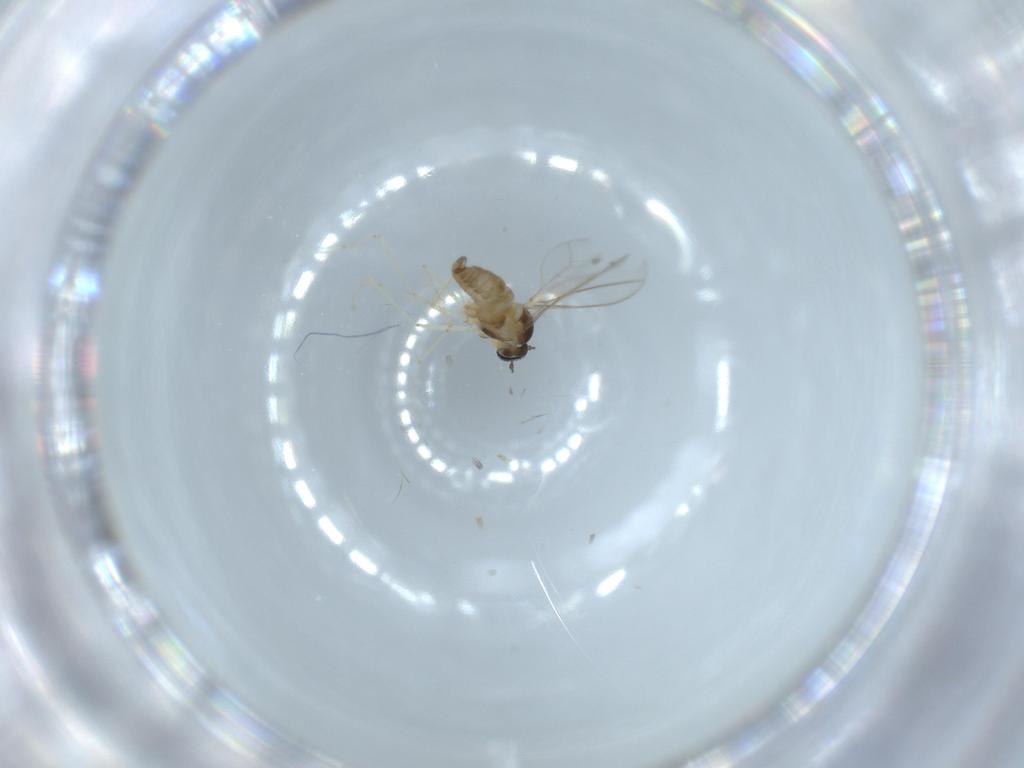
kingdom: Animalia
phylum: Arthropoda
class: Insecta
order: Diptera
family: Cecidomyiidae
